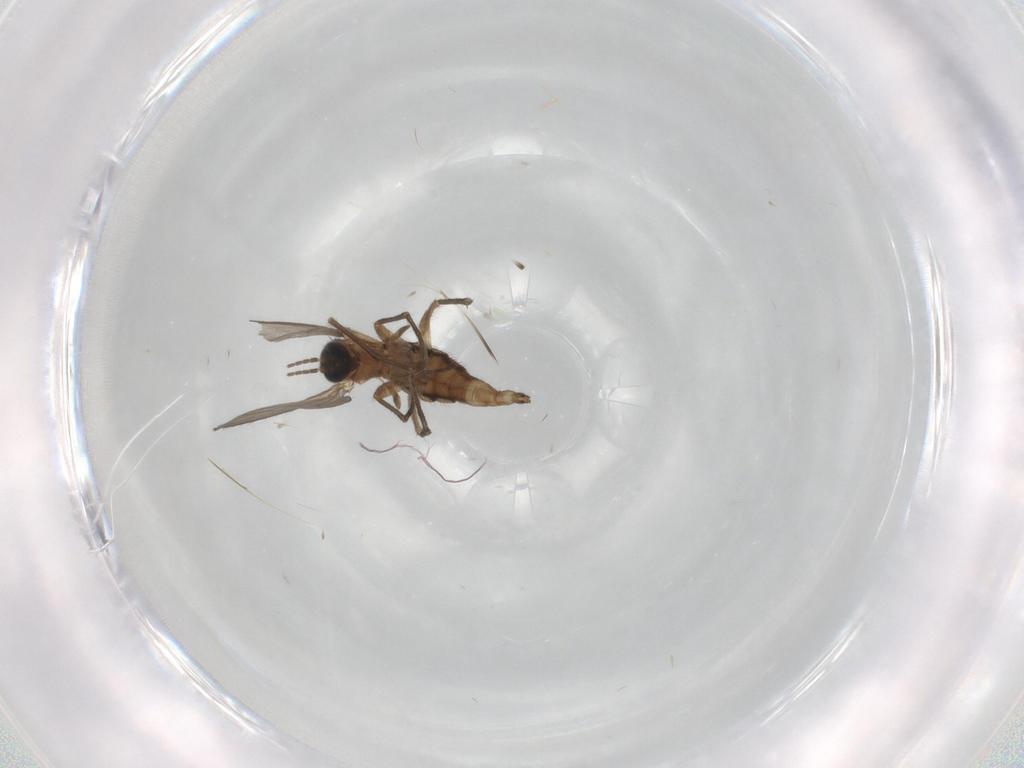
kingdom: Animalia
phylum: Arthropoda
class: Insecta
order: Diptera
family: Sciaridae
